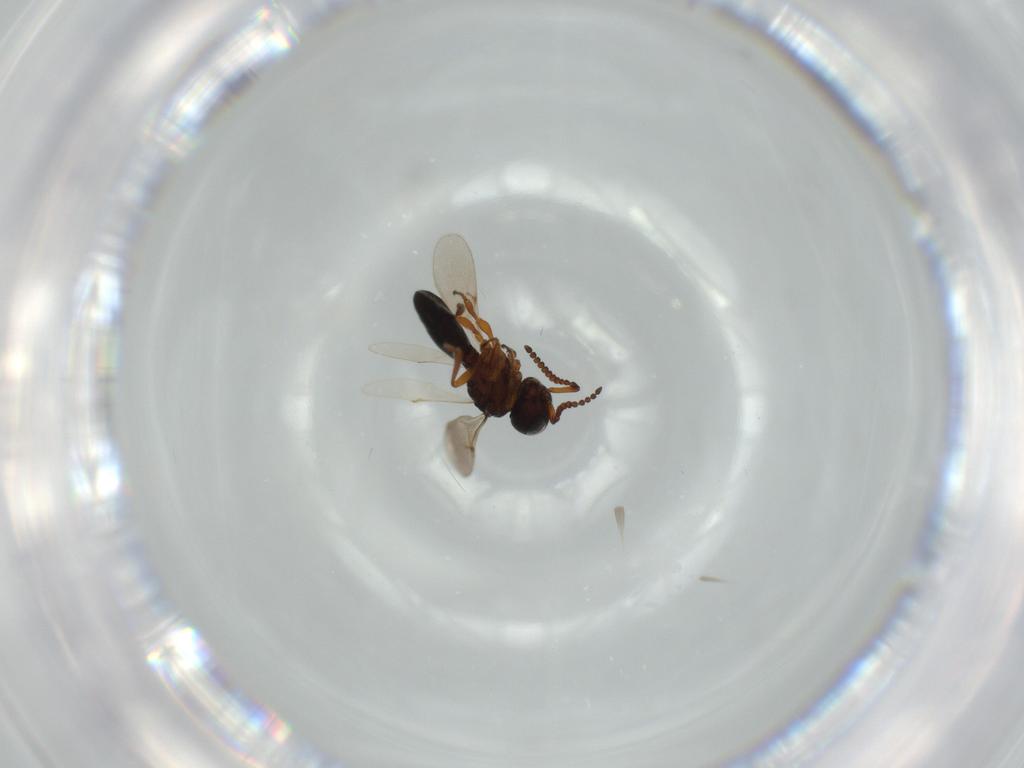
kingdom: Animalia
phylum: Arthropoda
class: Insecta
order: Hymenoptera
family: Scelionidae
